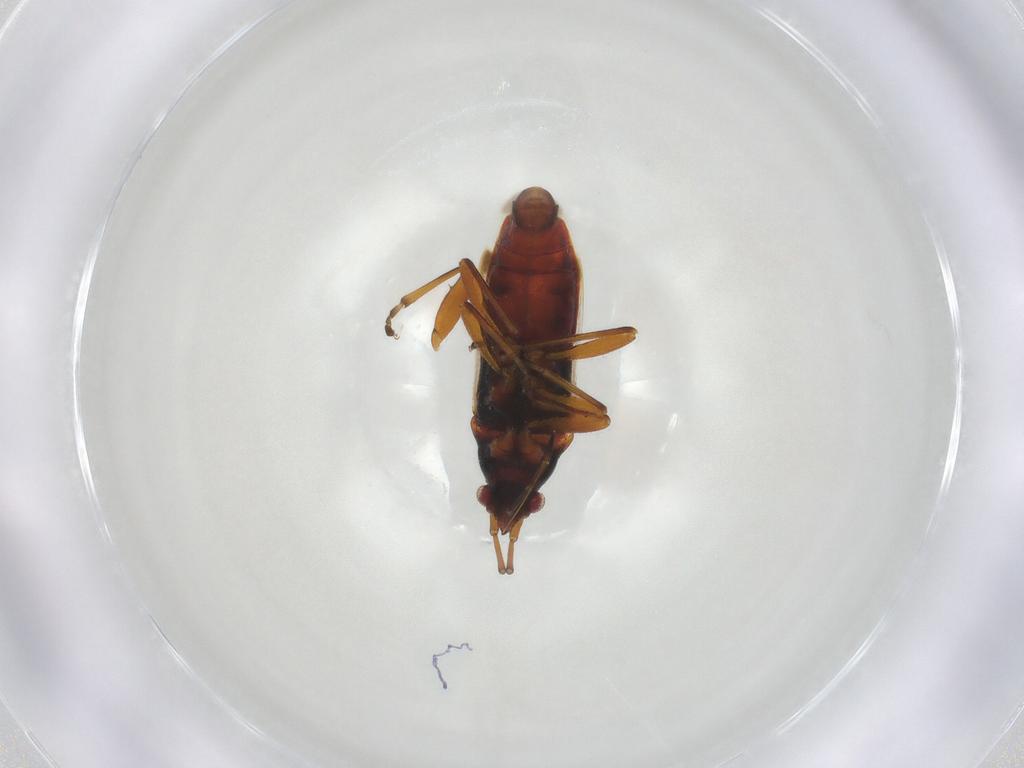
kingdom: Animalia
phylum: Arthropoda
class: Insecta
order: Hemiptera
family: Rhyparochromidae
